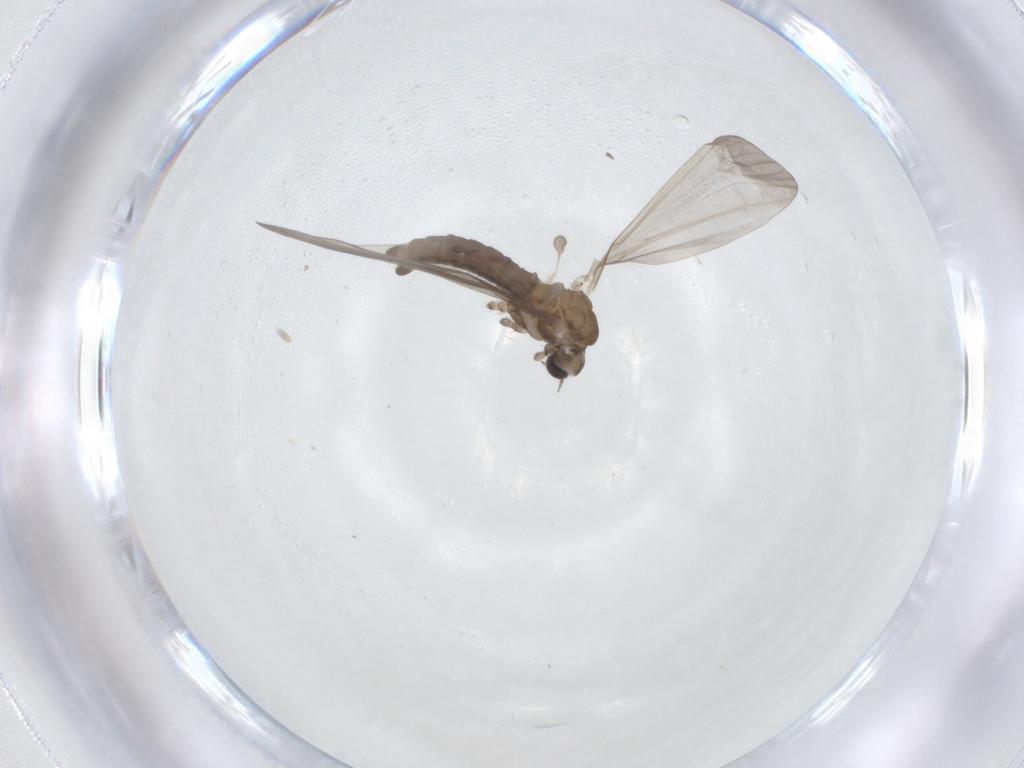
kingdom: Animalia
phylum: Arthropoda
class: Insecta
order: Diptera
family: Limoniidae
